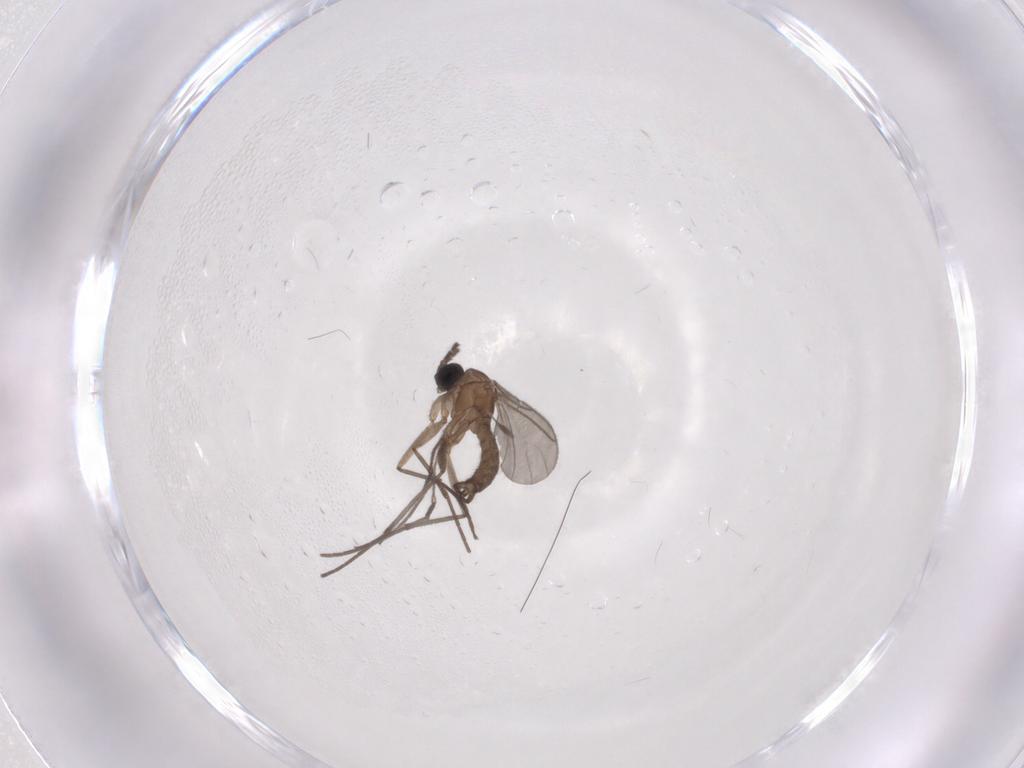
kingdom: Animalia
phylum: Arthropoda
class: Insecta
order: Diptera
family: Sciaridae
